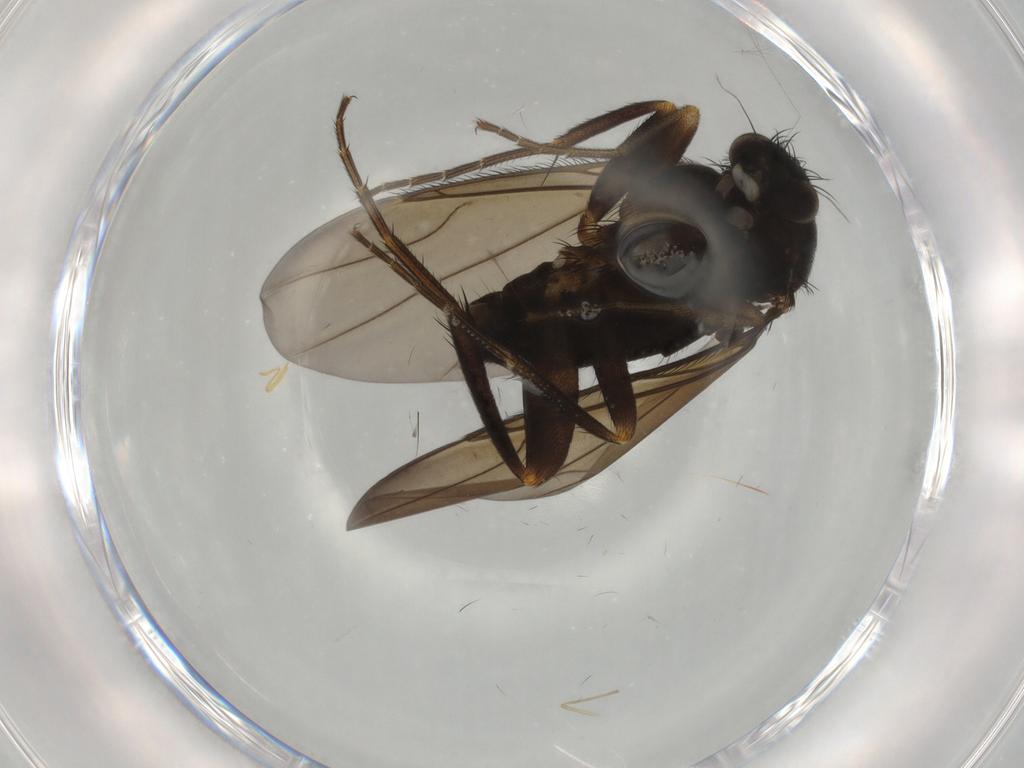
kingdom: Animalia
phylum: Arthropoda
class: Insecta
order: Diptera
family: Phoridae
